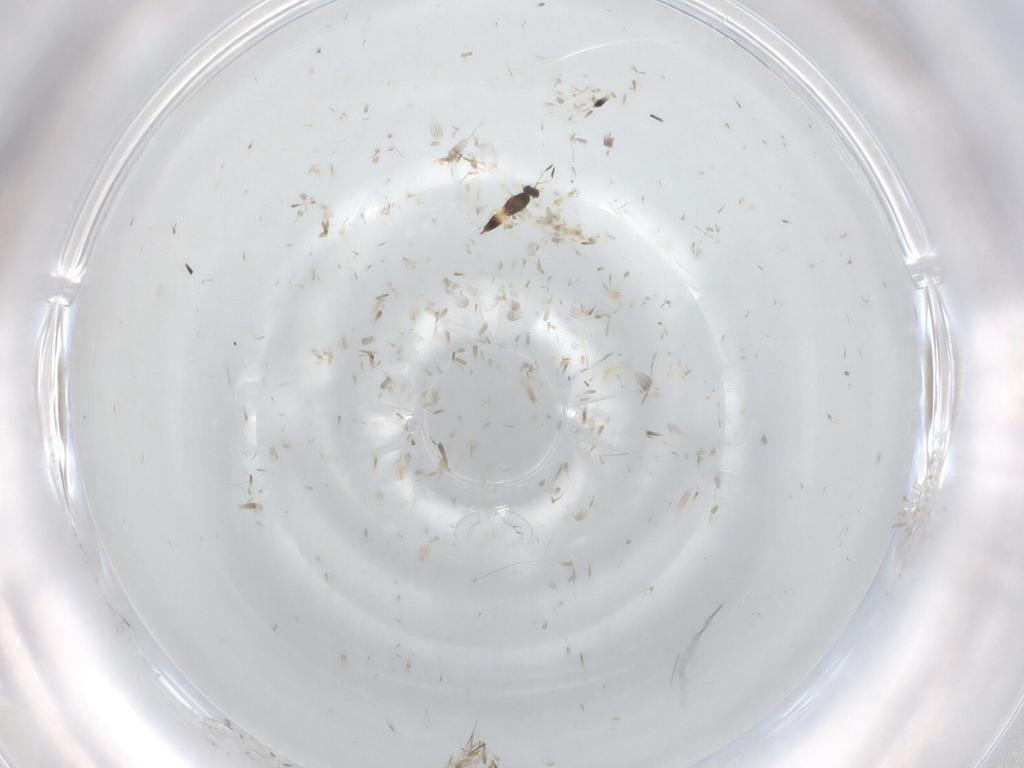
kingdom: Animalia
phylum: Arthropoda
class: Insecta
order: Hymenoptera
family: Mymaridae
